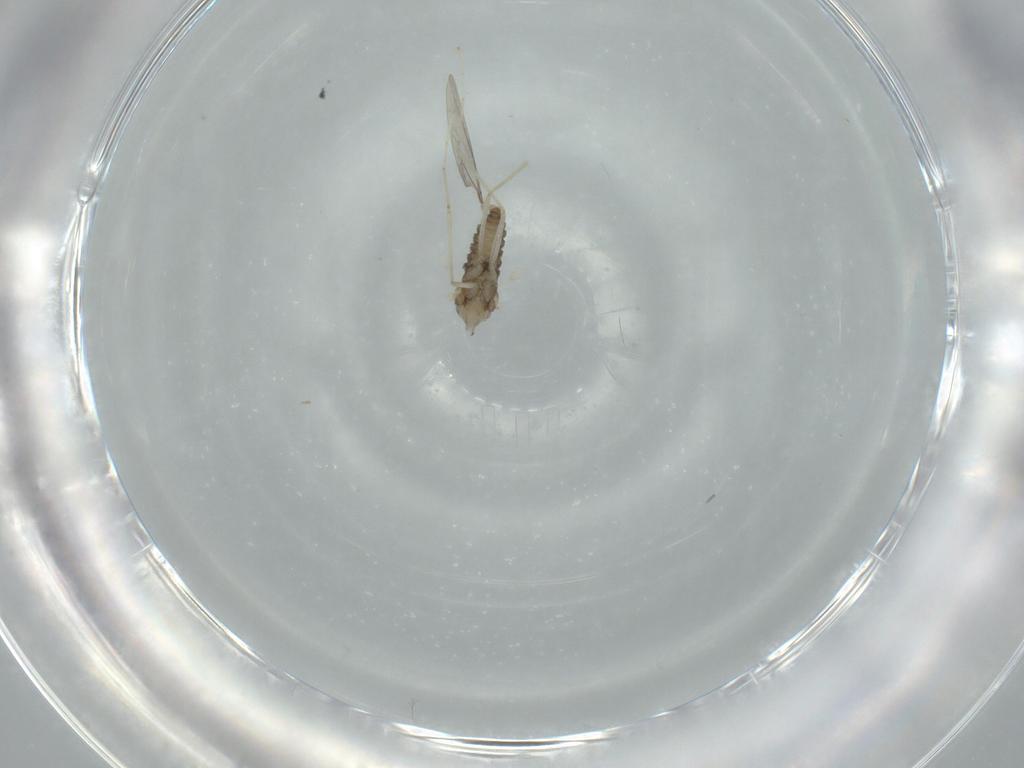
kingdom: Animalia
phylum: Arthropoda
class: Insecta
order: Diptera
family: Cecidomyiidae
